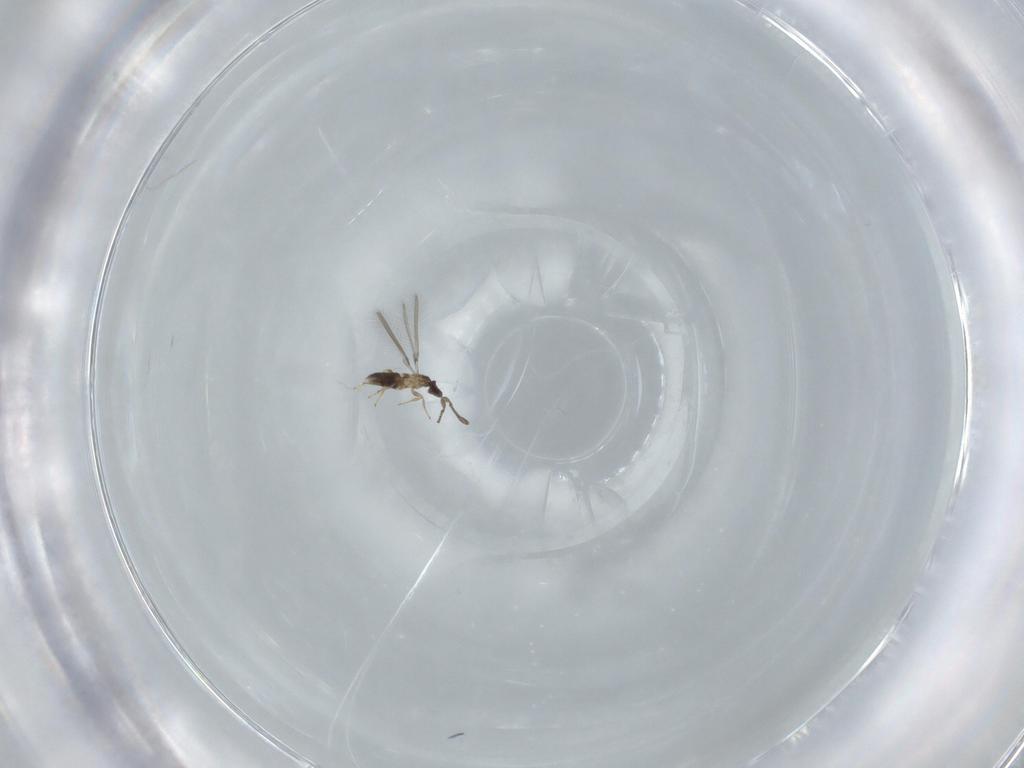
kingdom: Animalia
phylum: Arthropoda
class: Insecta
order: Hymenoptera
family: Mymaridae
